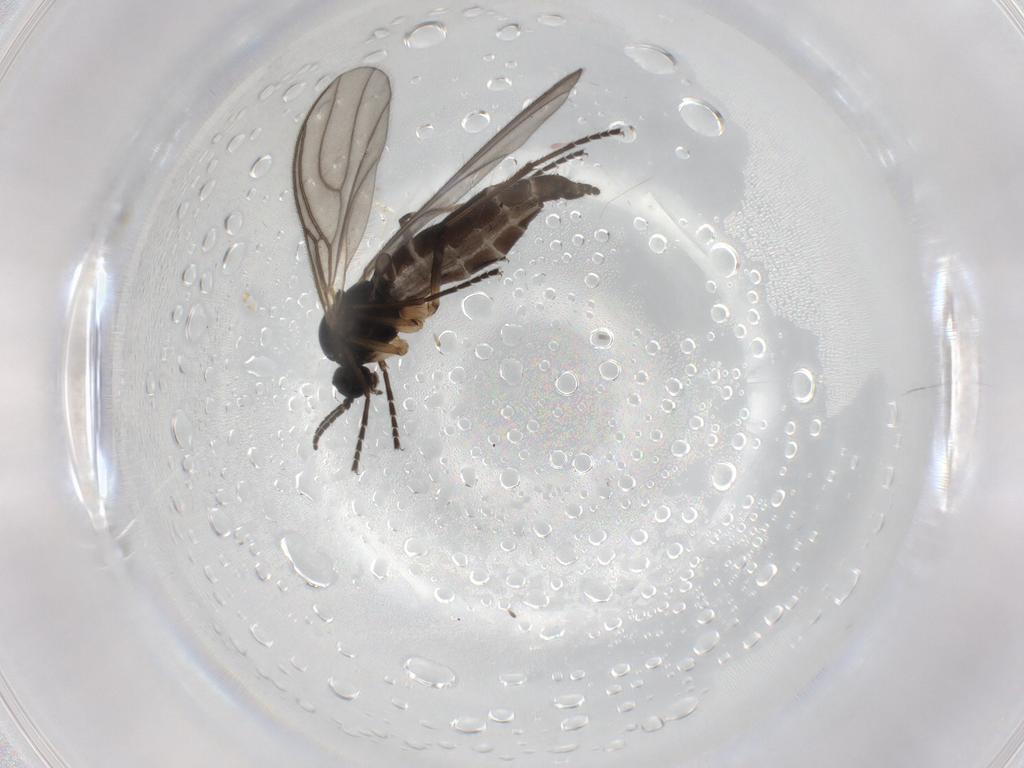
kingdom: Animalia
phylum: Arthropoda
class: Insecta
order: Diptera
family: Sciaridae
